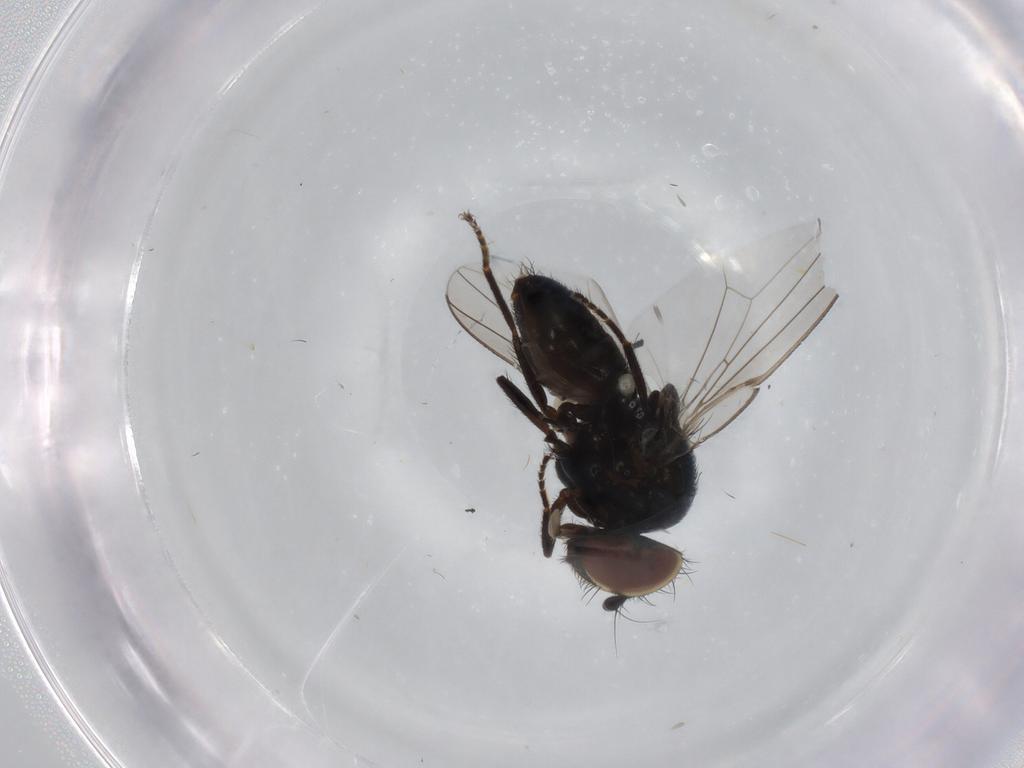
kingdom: Animalia
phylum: Arthropoda
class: Insecta
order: Diptera
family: Milichiidae
